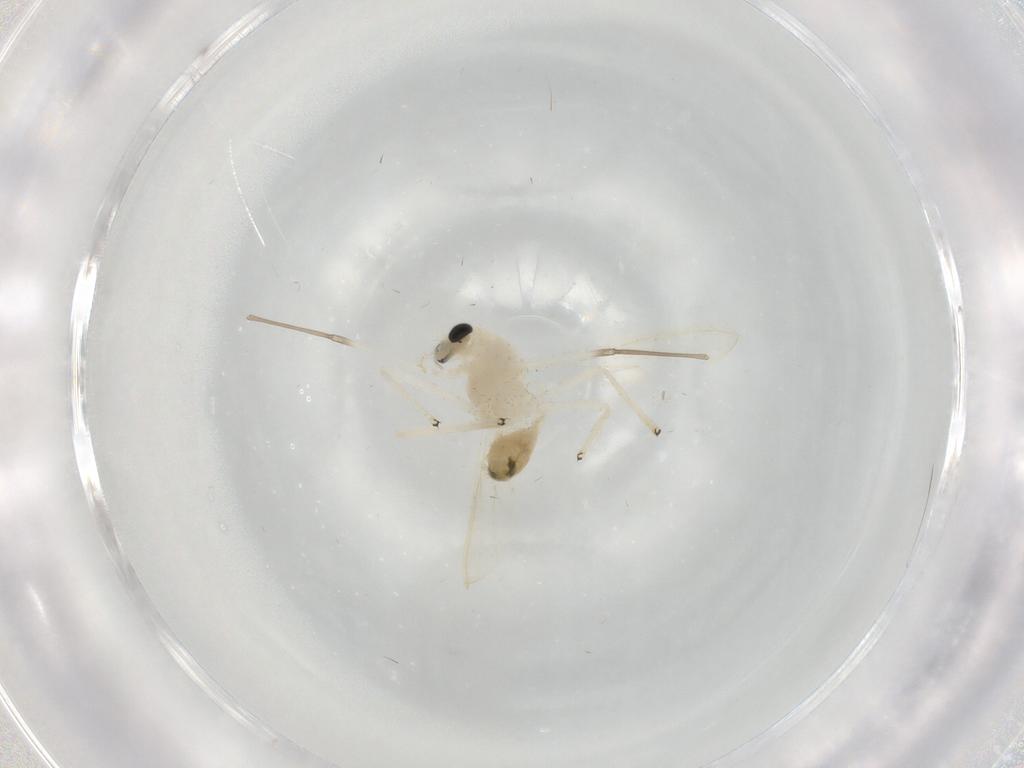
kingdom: Animalia
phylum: Arthropoda
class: Insecta
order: Diptera
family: Chironomidae
